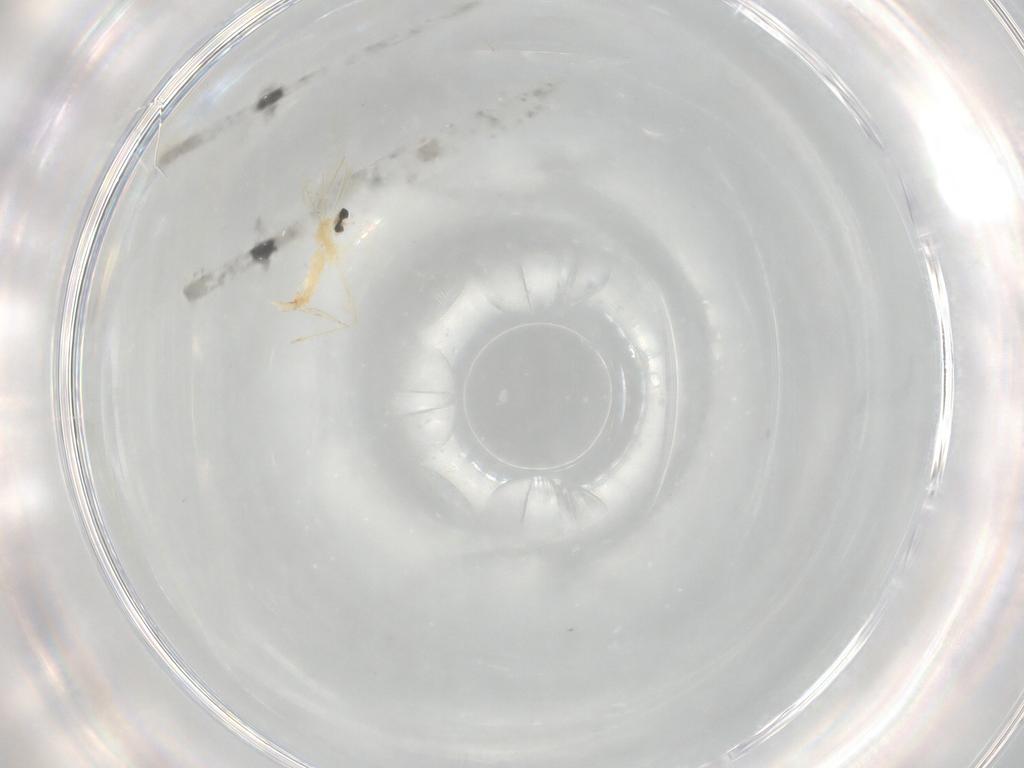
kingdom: Animalia
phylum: Arthropoda
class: Insecta
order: Diptera
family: Cecidomyiidae
